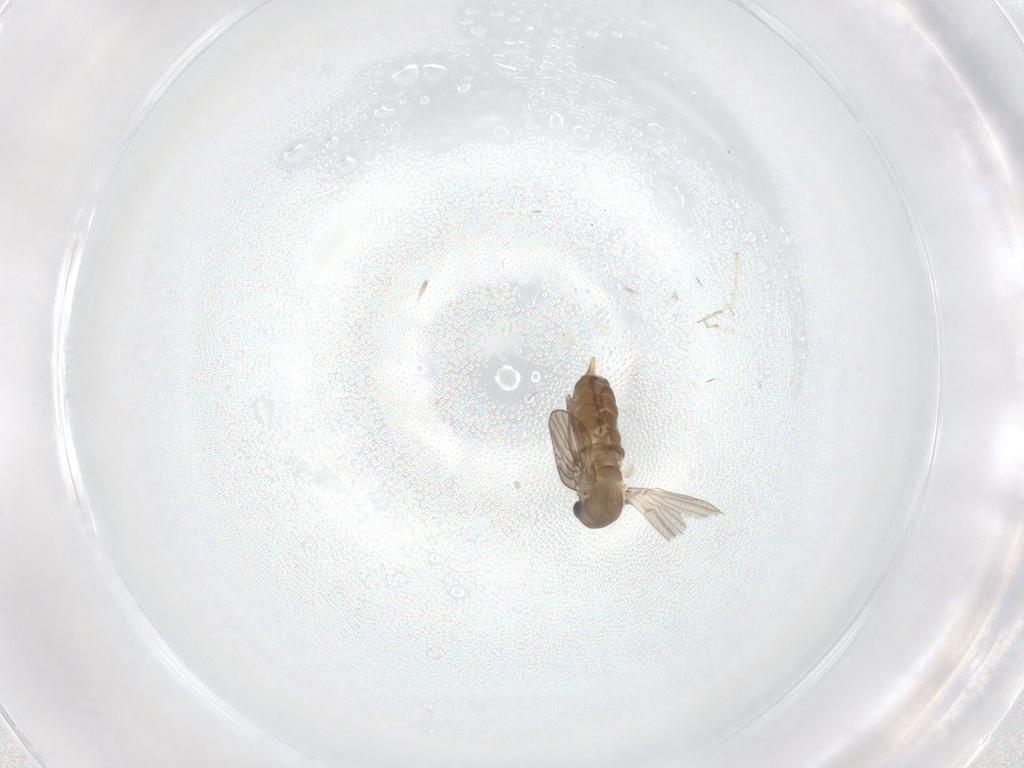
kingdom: Animalia
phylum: Arthropoda
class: Insecta
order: Diptera
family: Cecidomyiidae
